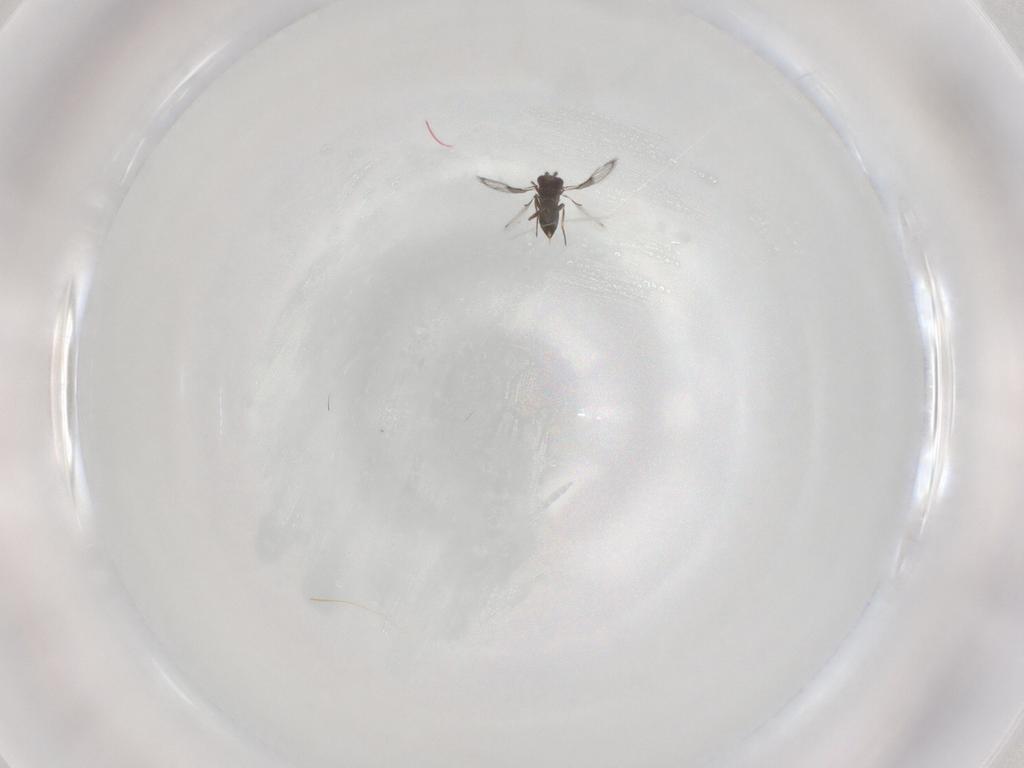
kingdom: Animalia
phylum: Arthropoda
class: Insecta
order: Hymenoptera
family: Trichogrammatidae
